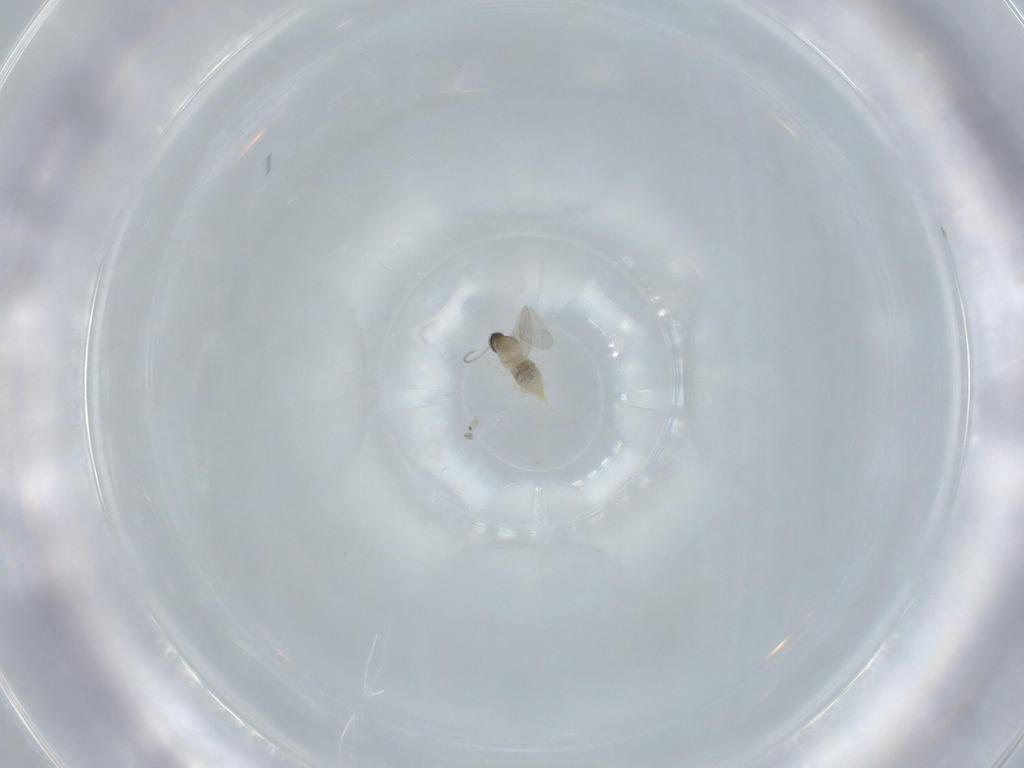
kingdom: Animalia
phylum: Arthropoda
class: Insecta
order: Diptera
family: Cecidomyiidae
